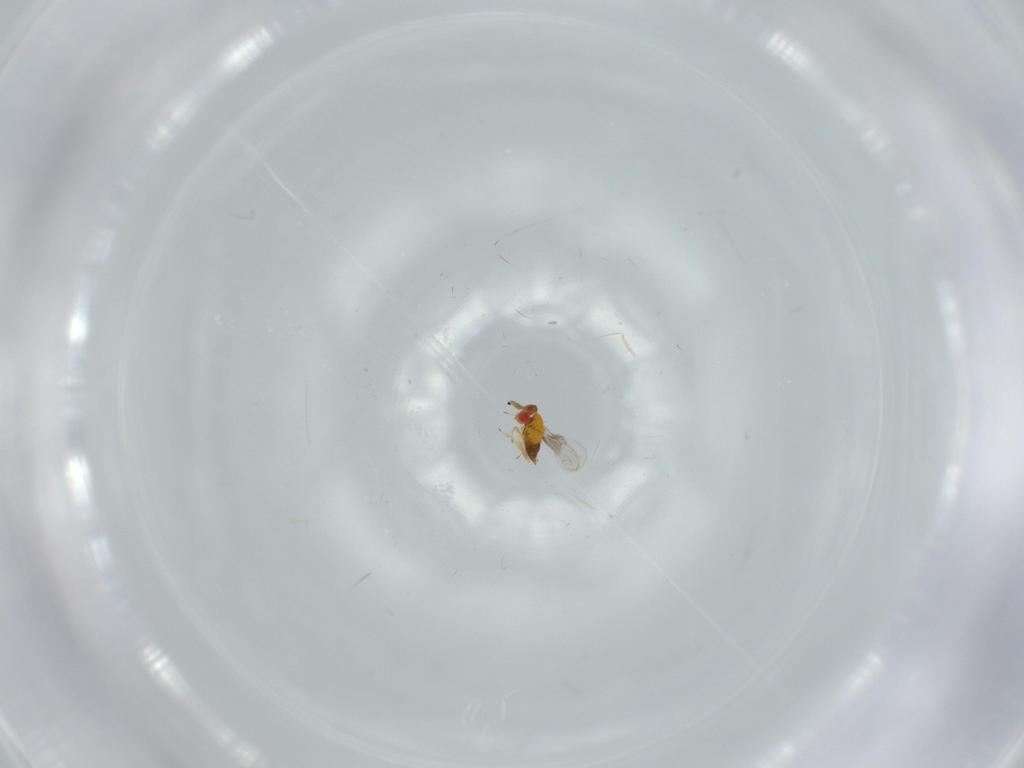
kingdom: Animalia
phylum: Arthropoda
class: Insecta
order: Hymenoptera
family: Trichogrammatidae
